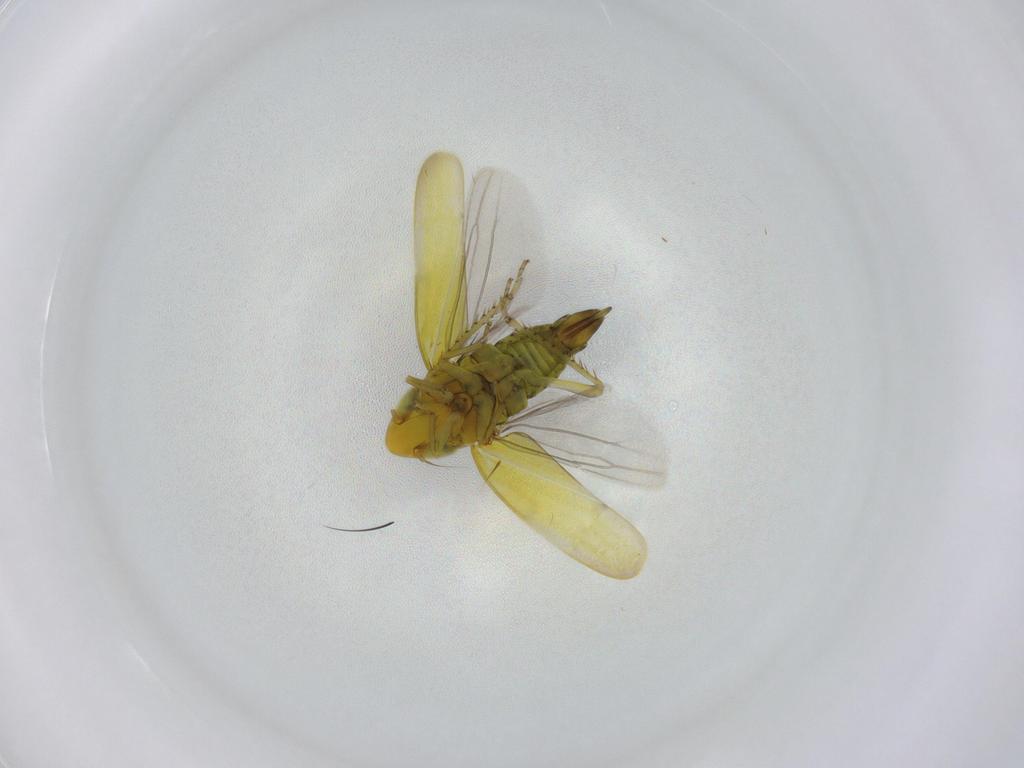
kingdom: Animalia
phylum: Arthropoda
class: Insecta
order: Hemiptera
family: Cicadellidae
